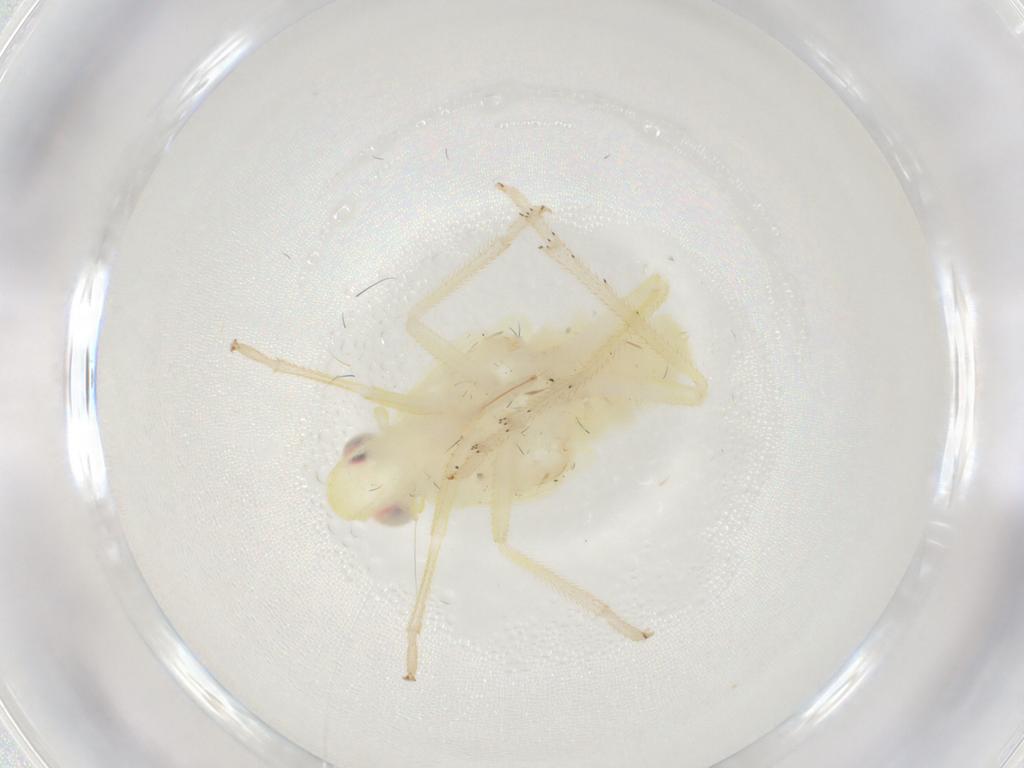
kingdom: Animalia
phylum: Arthropoda
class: Insecta
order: Hemiptera
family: Tropiduchidae
